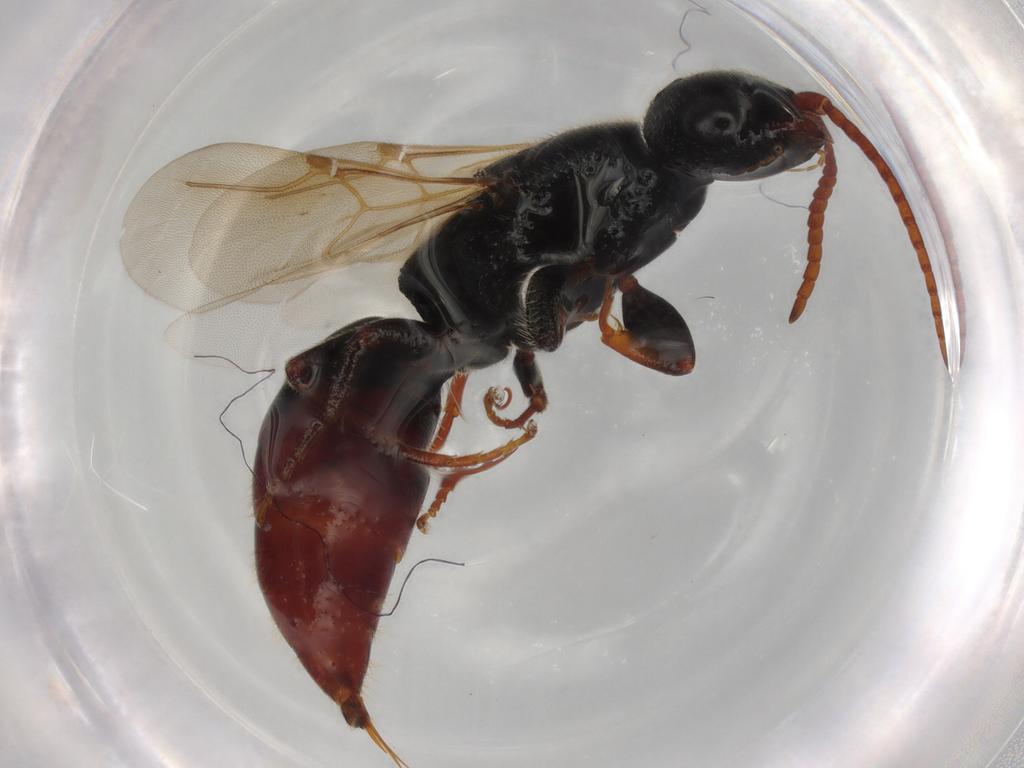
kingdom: Animalia
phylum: Arthropoda
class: Insecta
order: Hymenoptera
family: Bethylidae
